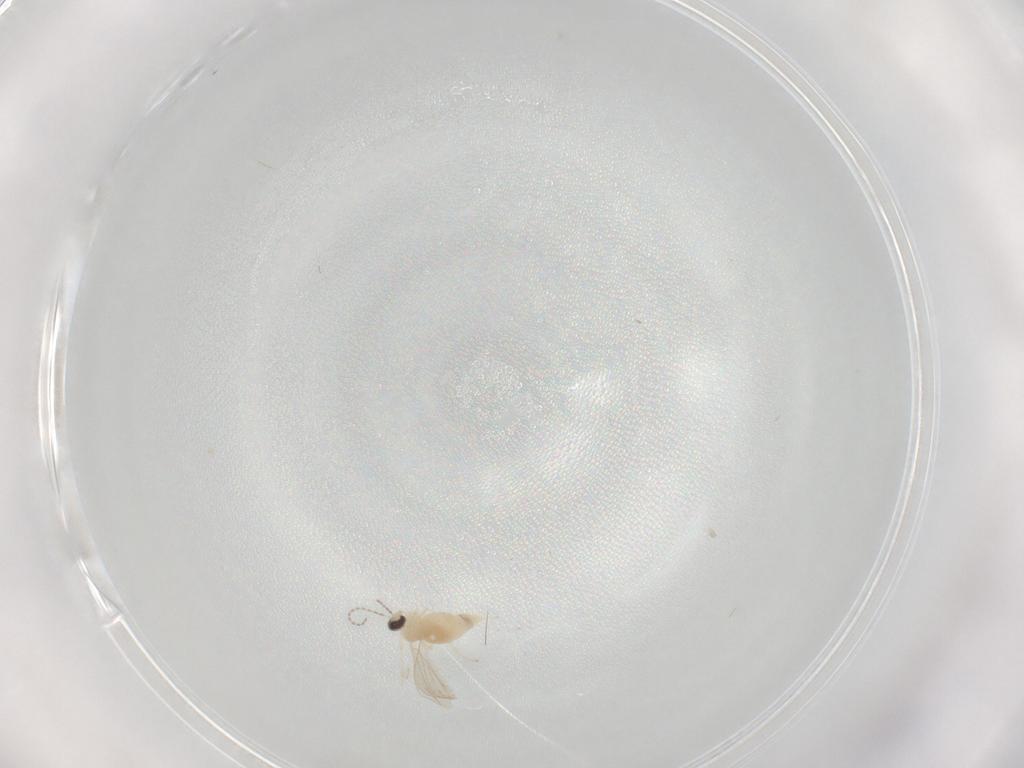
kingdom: Animalia
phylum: Arthropoda
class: Insecta
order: Diptera
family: Cecidomyiidae
